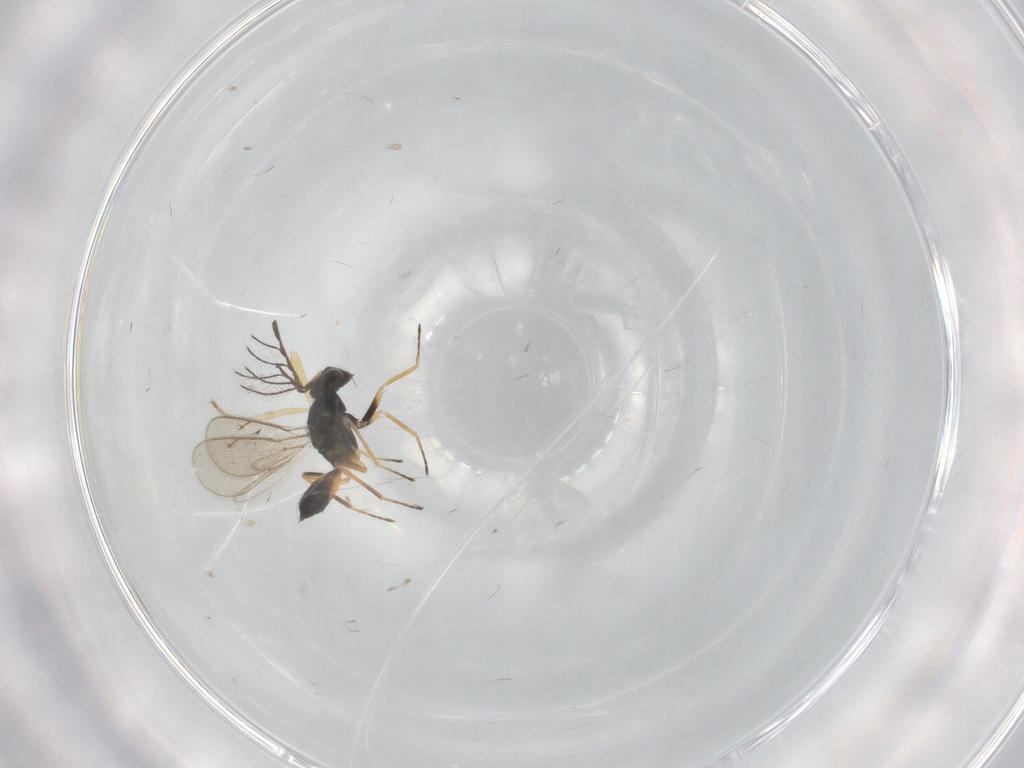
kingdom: Animalia
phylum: Arthropoda
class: Insecta
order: Hymenoptera
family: Eulophidae
